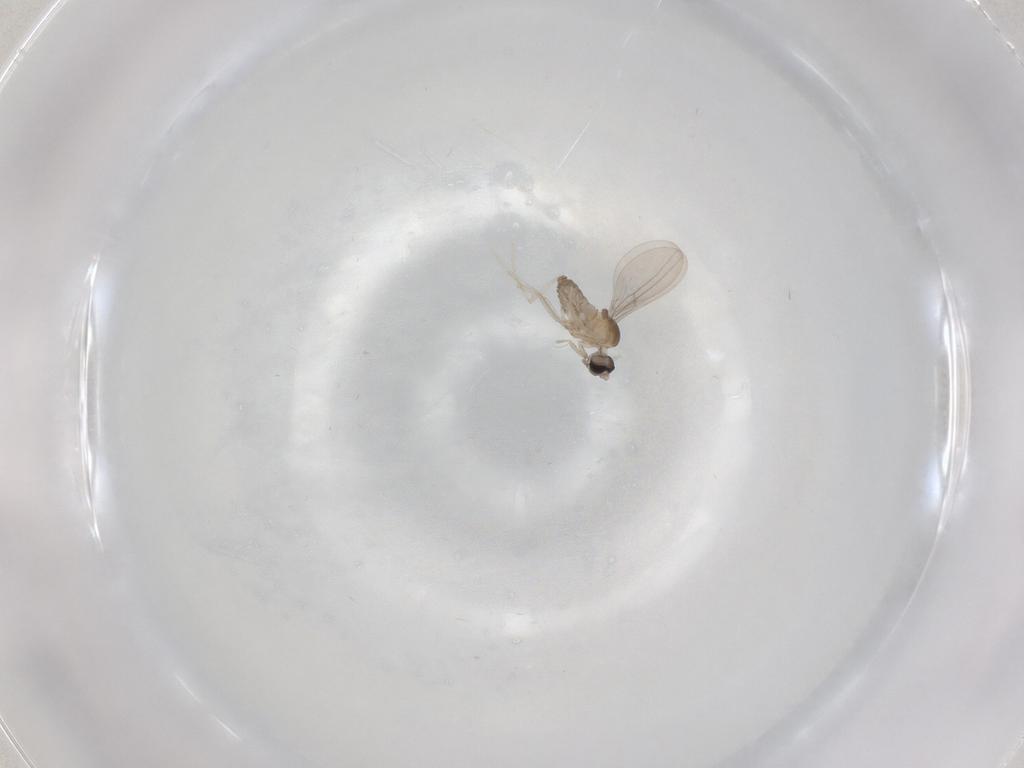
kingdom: Animalia
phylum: Arthropoda
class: Insecta
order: Diptera
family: Cecidomyiidae
